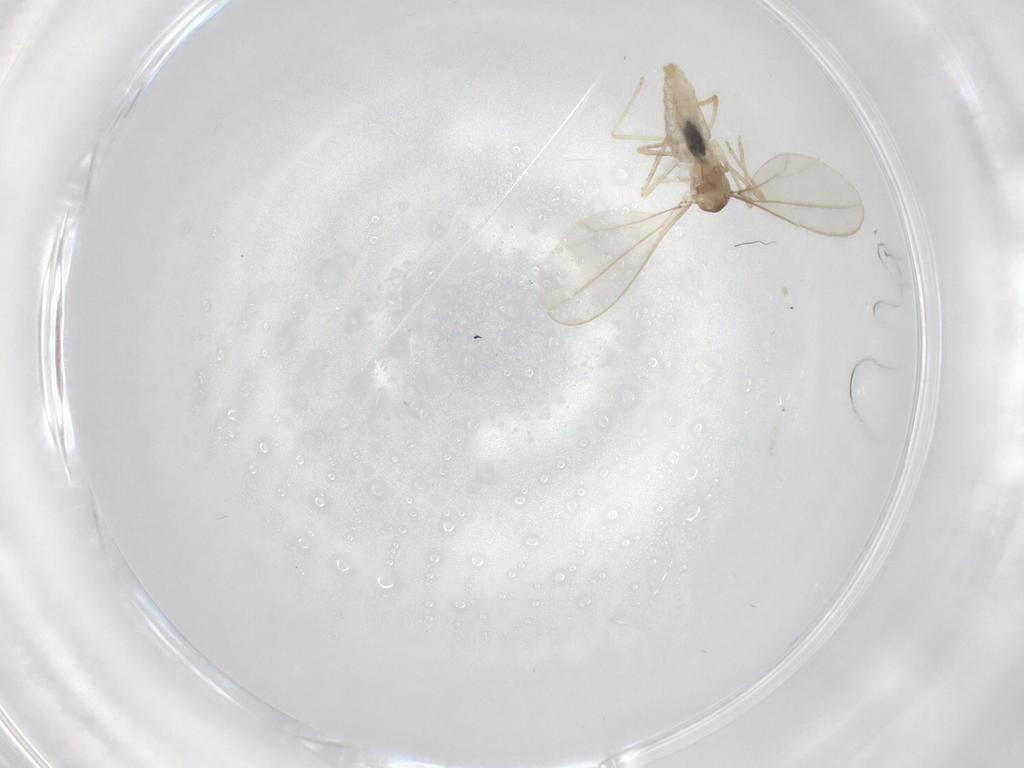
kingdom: Animalia
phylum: Arthropoda
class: Insecta
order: Diptera
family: Cecidomyiidae
